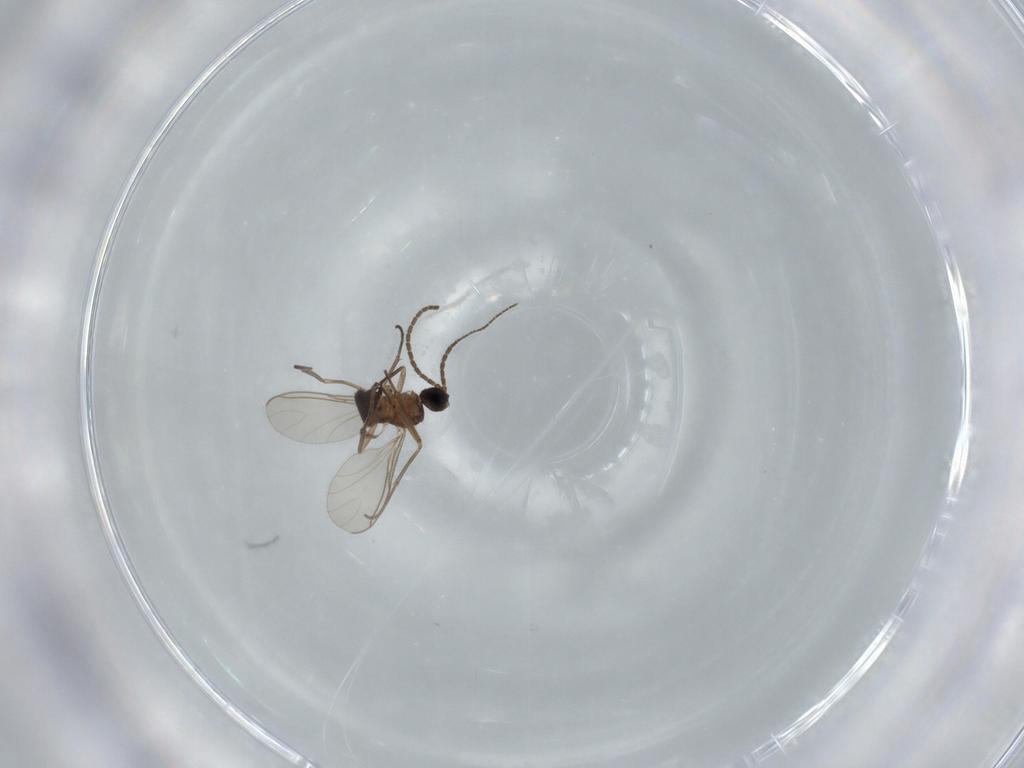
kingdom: Animalia
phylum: Arthropoda
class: Insecta
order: Diptera
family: Sciaridae
